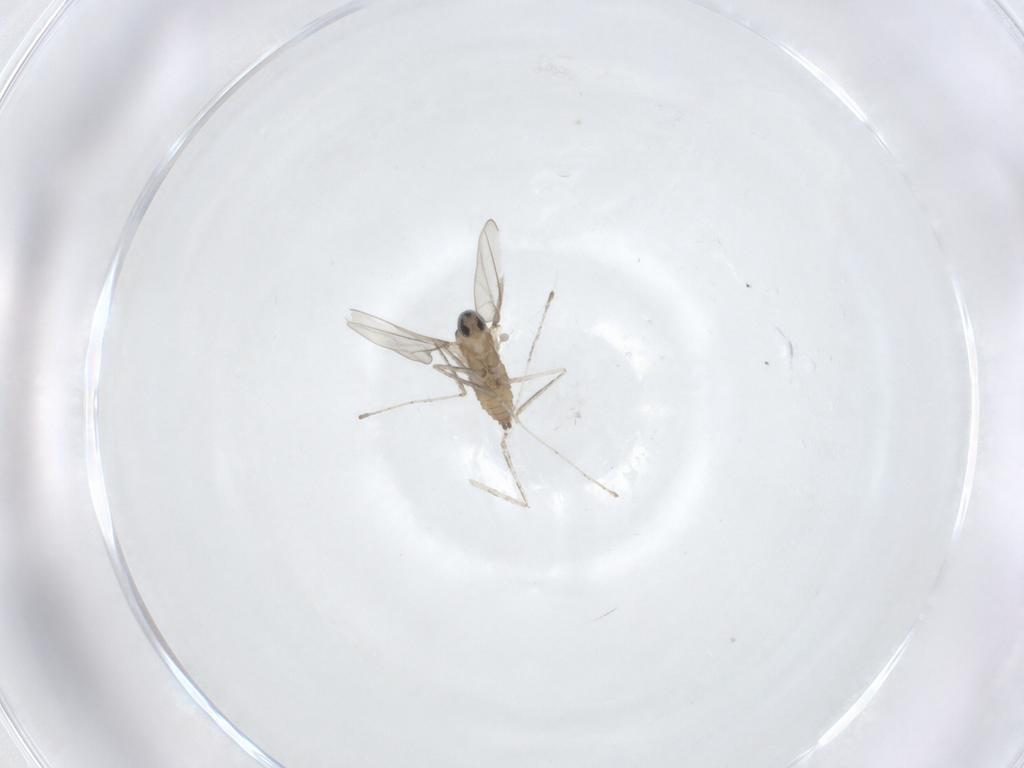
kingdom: Animalia
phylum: Arthropoda
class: Insecta
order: Diptera
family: Cecidomyiidae
